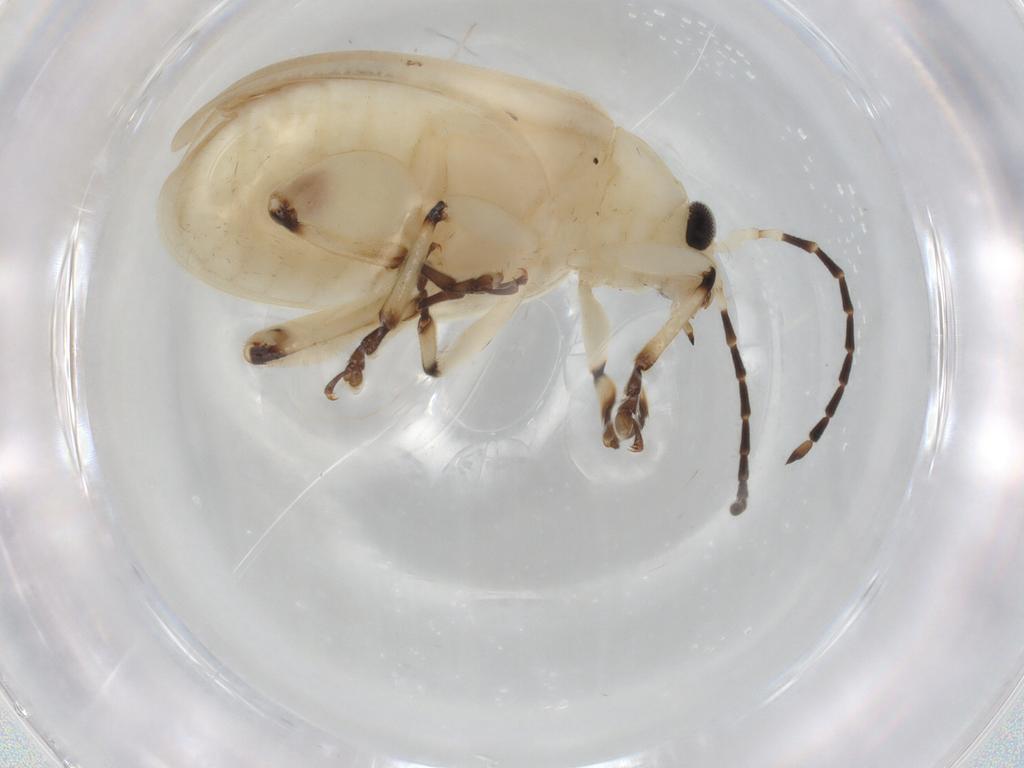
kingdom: Animalia
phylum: Arthropoda
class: Insecta
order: Coleoptera
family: Chrysomelidae
